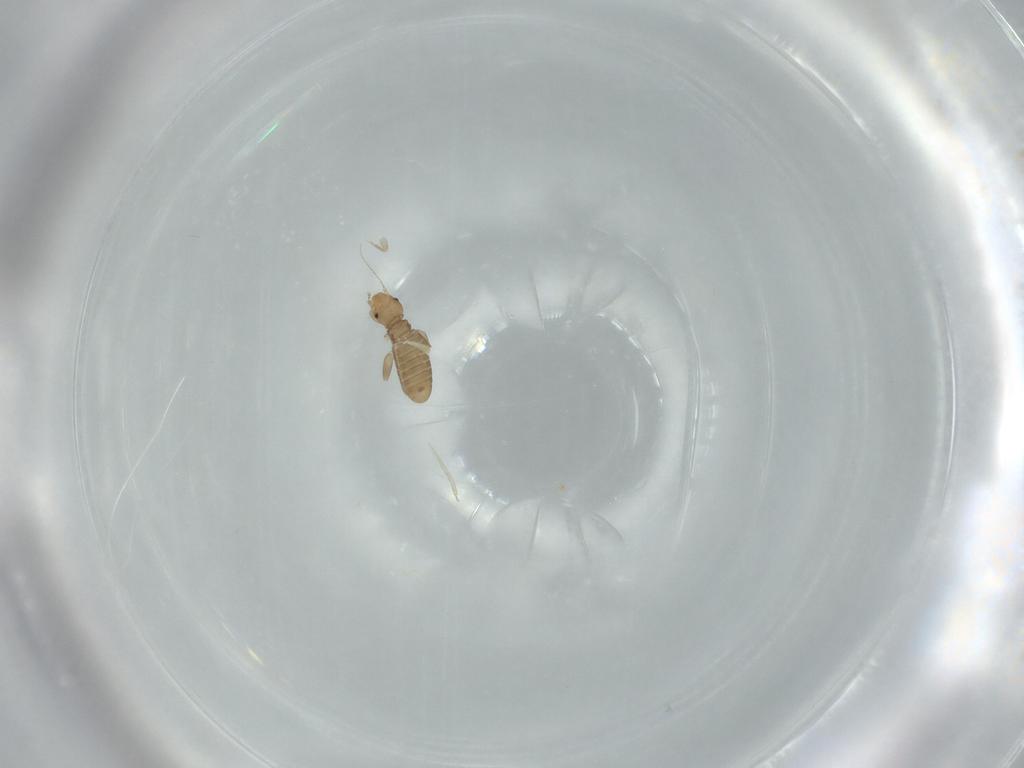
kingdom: Animalia
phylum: Arthropoda
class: Insecta
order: Psocodea
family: Liposcelididae
